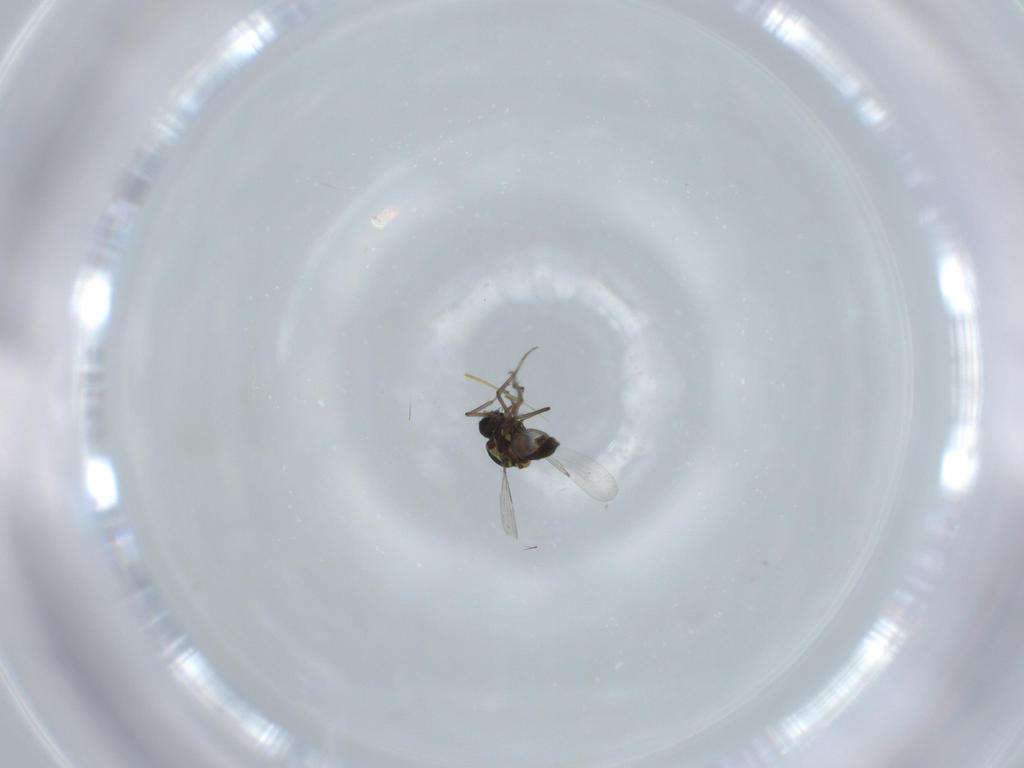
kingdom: Animalia
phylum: Arthropoda
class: Insecta
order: Diptera
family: Ceratopogonidae
